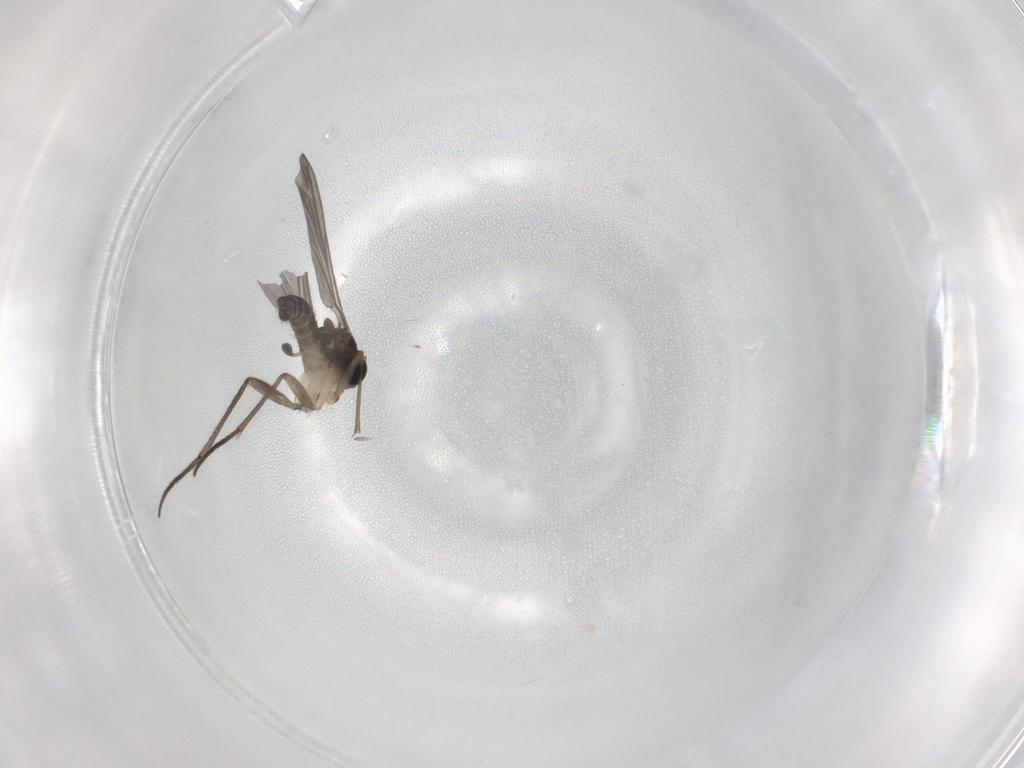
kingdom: Animalia
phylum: Arthropoda
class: Insecta
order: Diptera
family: Sciaridae
